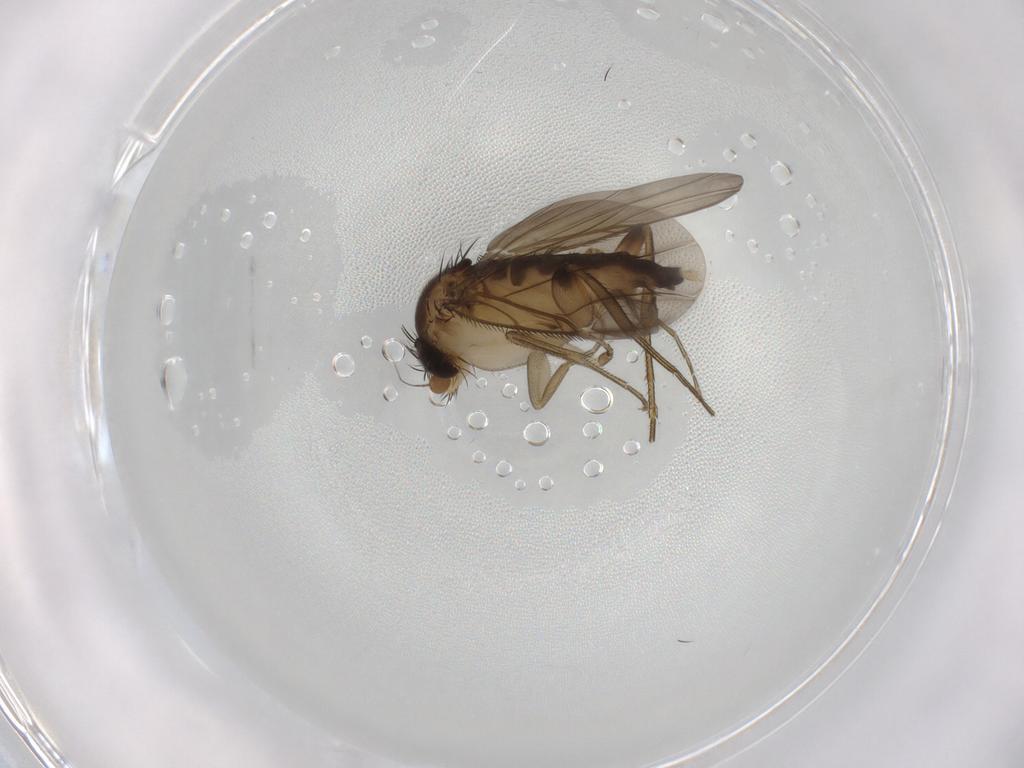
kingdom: Animalia
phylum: Arthropoda
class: Insecta
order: Diptera
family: Phoridae
